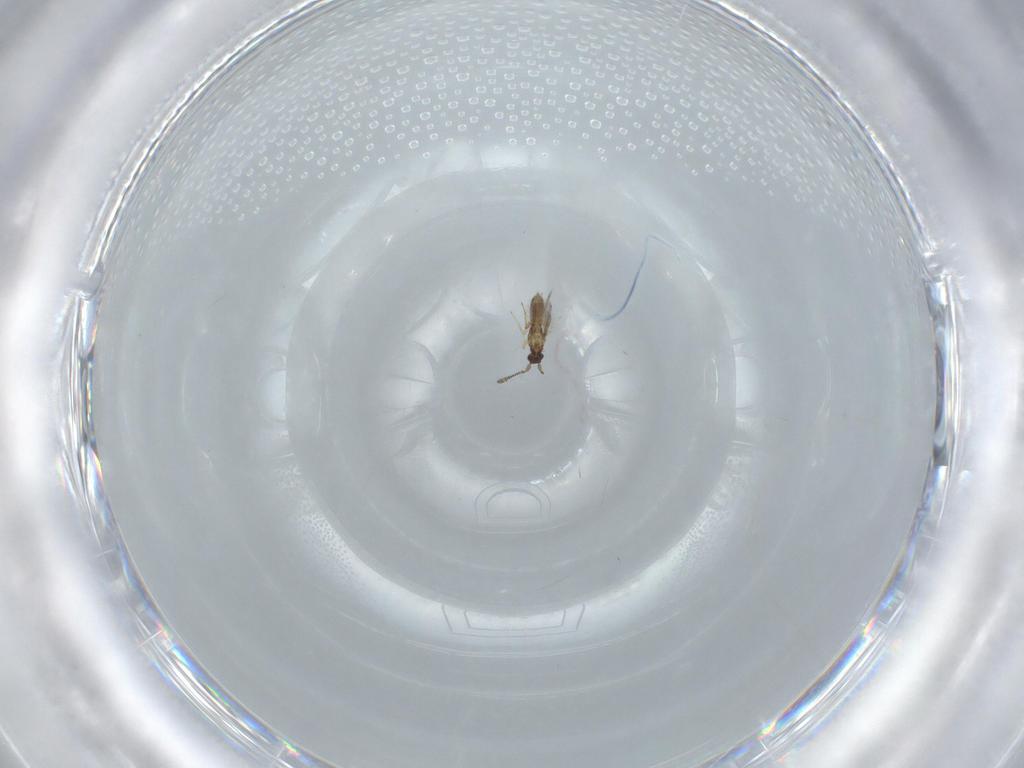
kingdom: Animalia
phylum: Arthropoda
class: Insecta
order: Hymenoptera
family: Mymaridae
